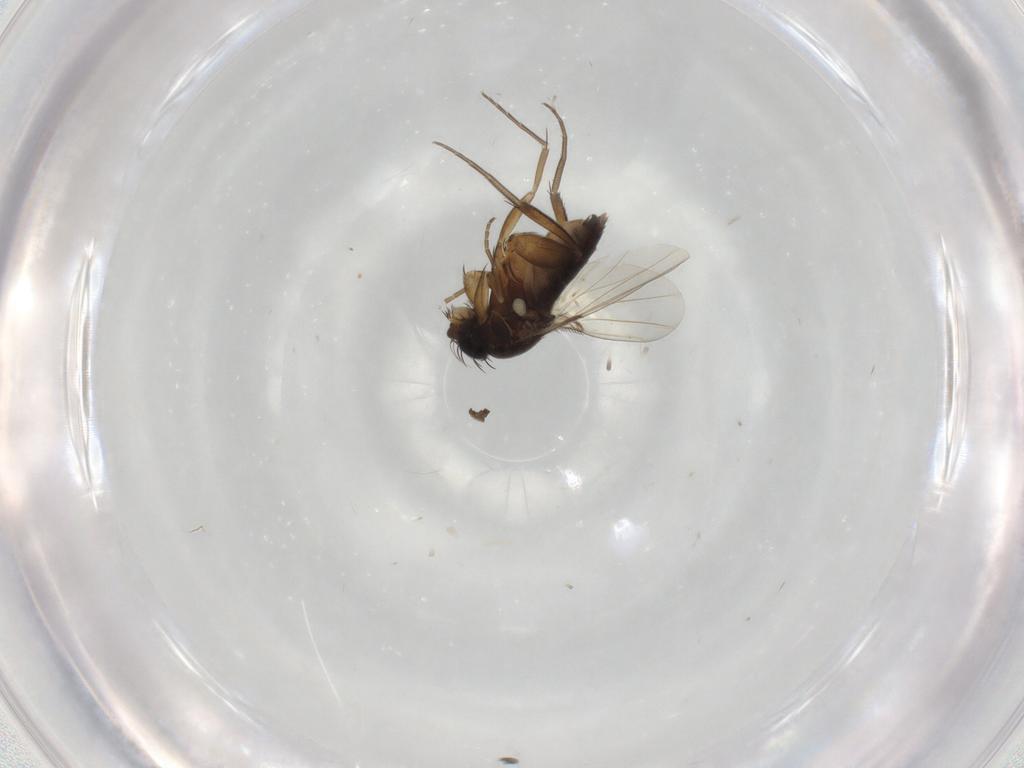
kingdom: Animalia
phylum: Arthropoda
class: Insecta
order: Diptera
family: Phoridae
